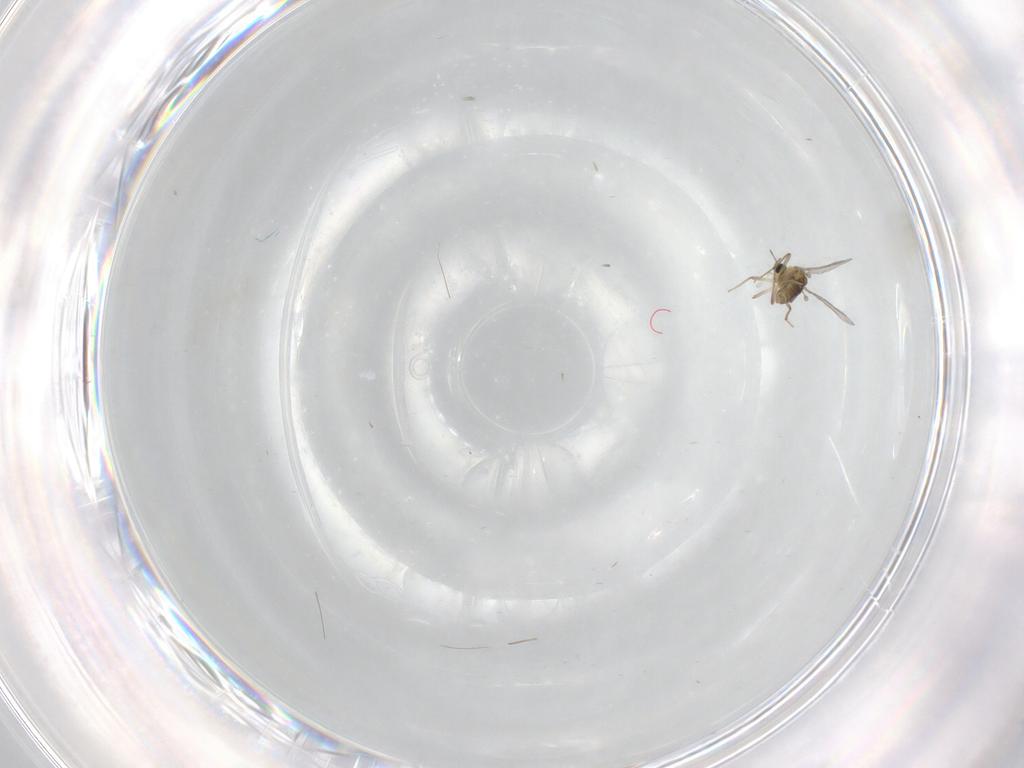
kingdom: Animalia
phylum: Arthropoda
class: Insecta
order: Diptera
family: Chironomidae
